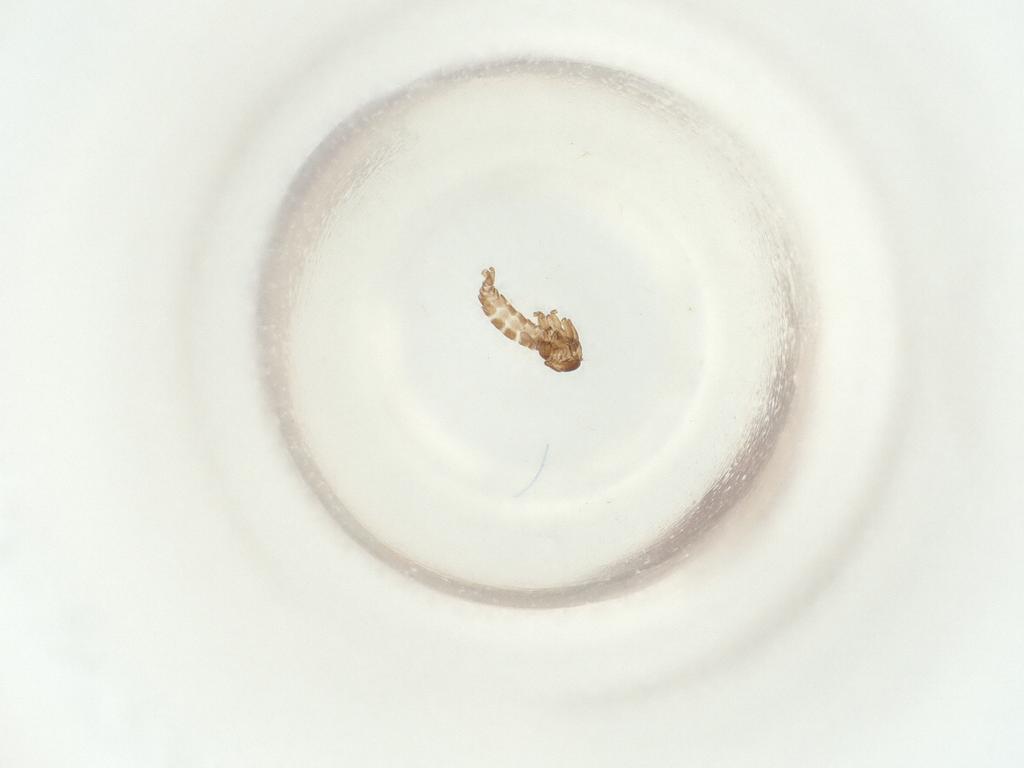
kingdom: Animalia
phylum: Arthropoda
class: Insecta
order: Diptera
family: Sciaridae
